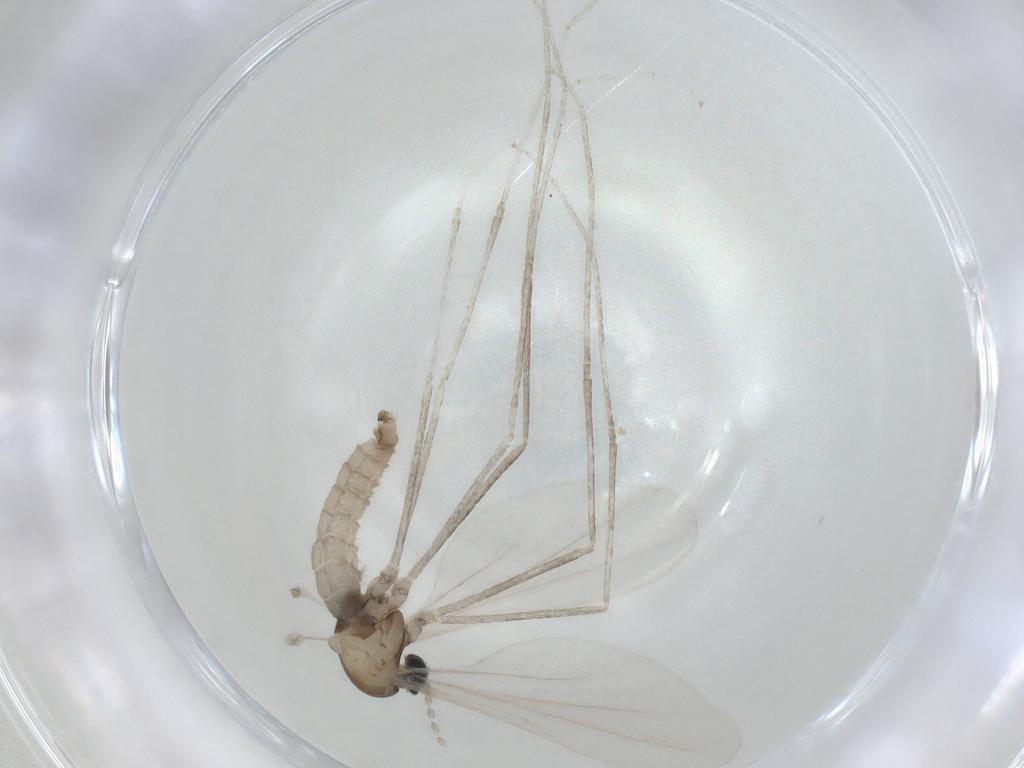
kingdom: Animalia
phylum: Arthropoda
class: Insecta
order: Diptera
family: Cecidomyiidae
